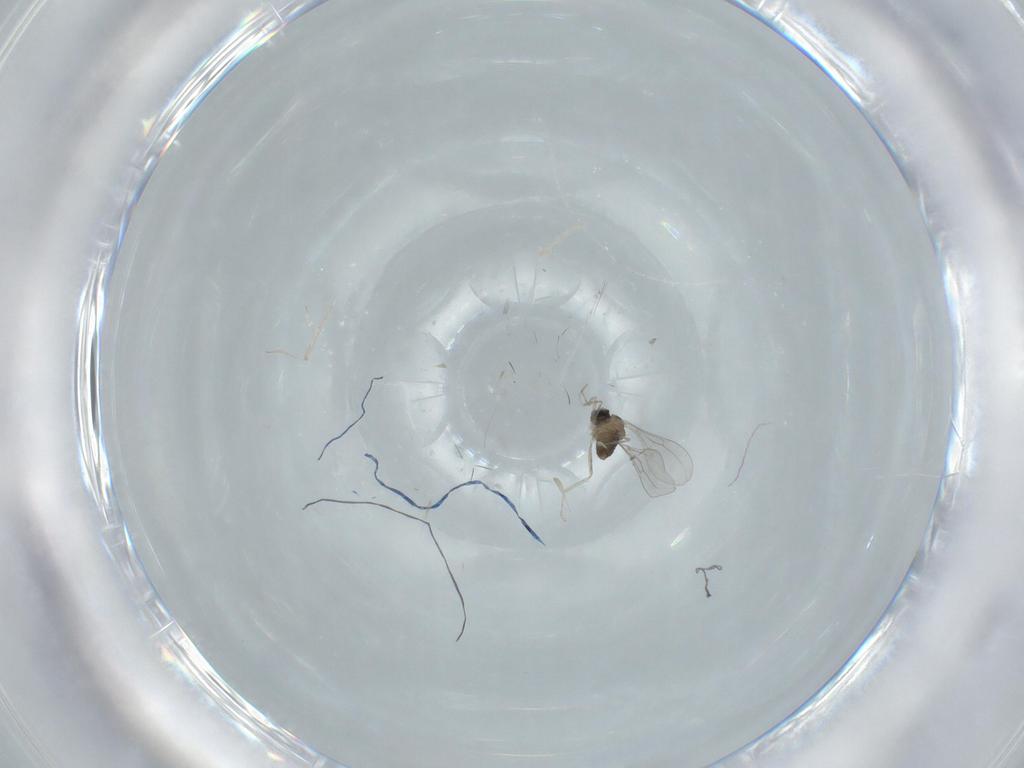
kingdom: Animalia
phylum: Arthropoda
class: Insecta
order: Diptera
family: Cecidomyiidae
